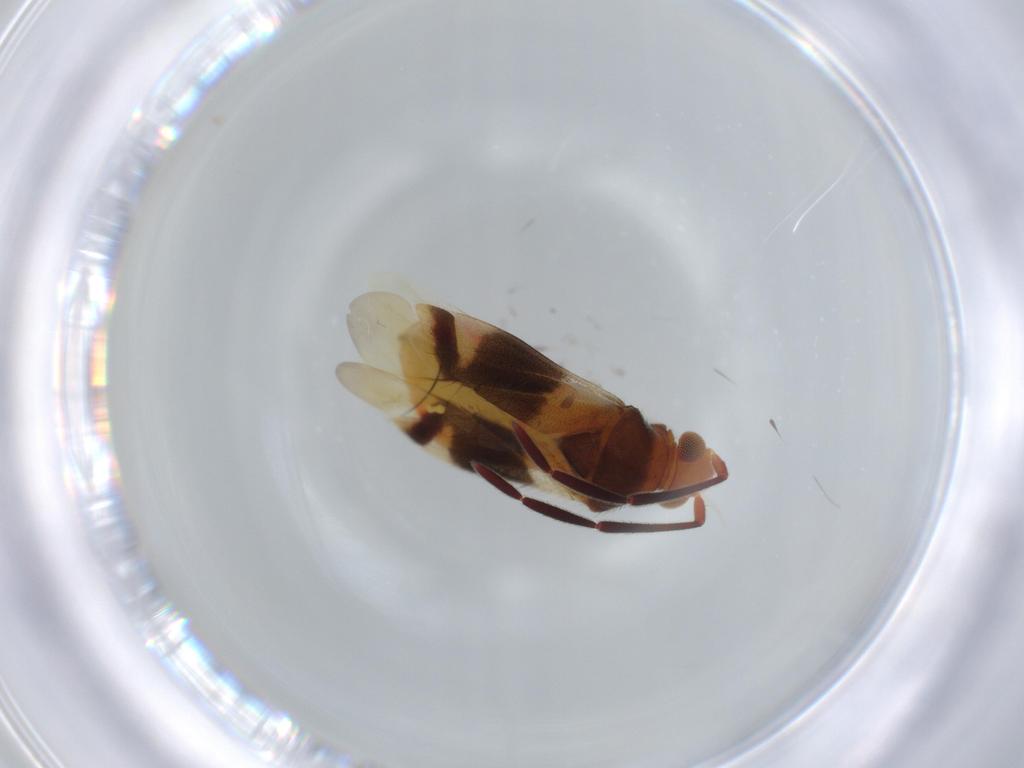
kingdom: Animalia
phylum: Arthropoda
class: Insecta
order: Hemiptera
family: Miridae
